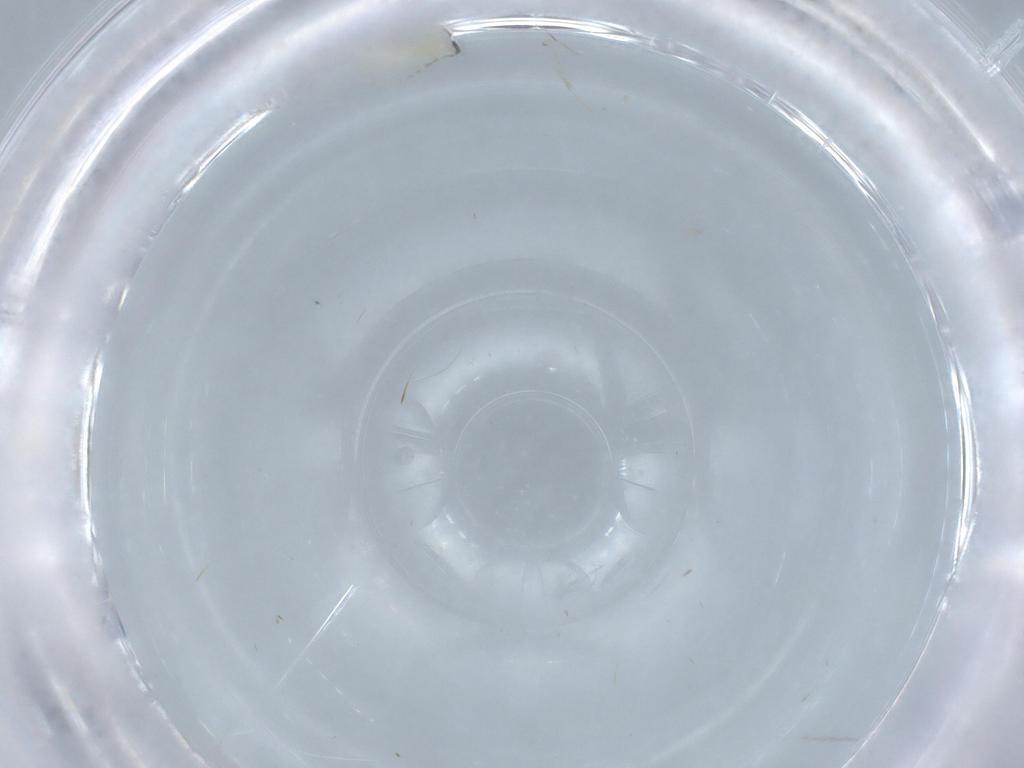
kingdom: Animalia
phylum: Arthropoda
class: Insecta
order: Diptera
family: Psychodidae
